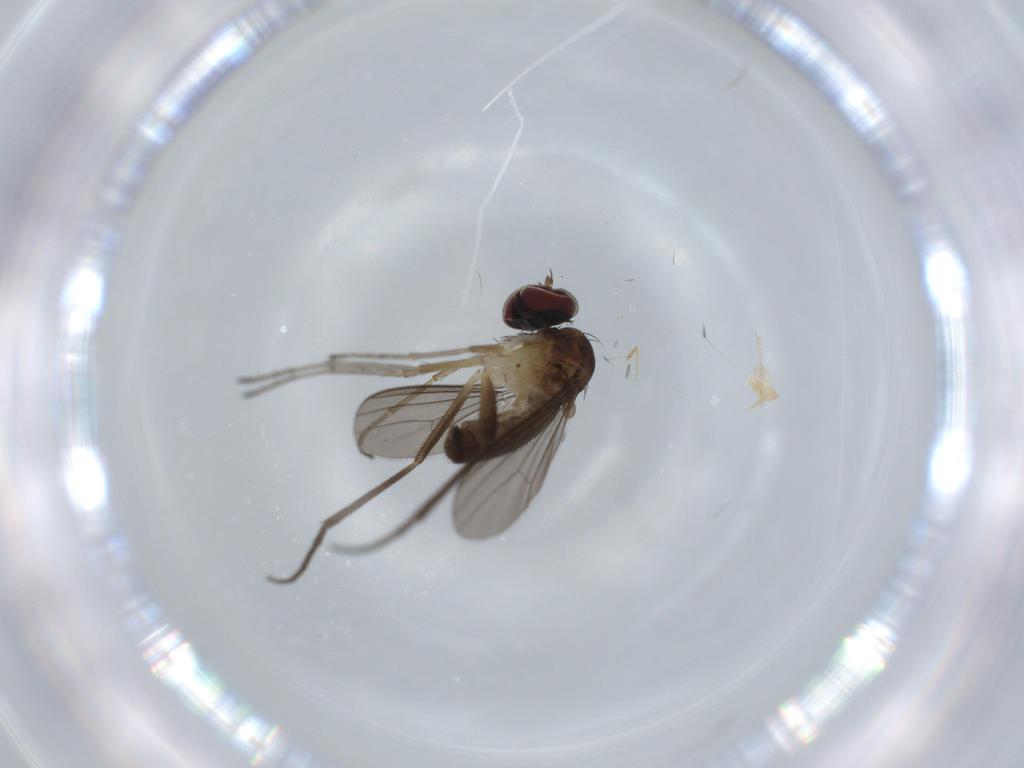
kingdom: Animalia
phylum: Arthropoda
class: Insecta
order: Diptera
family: Dolichopodidae
